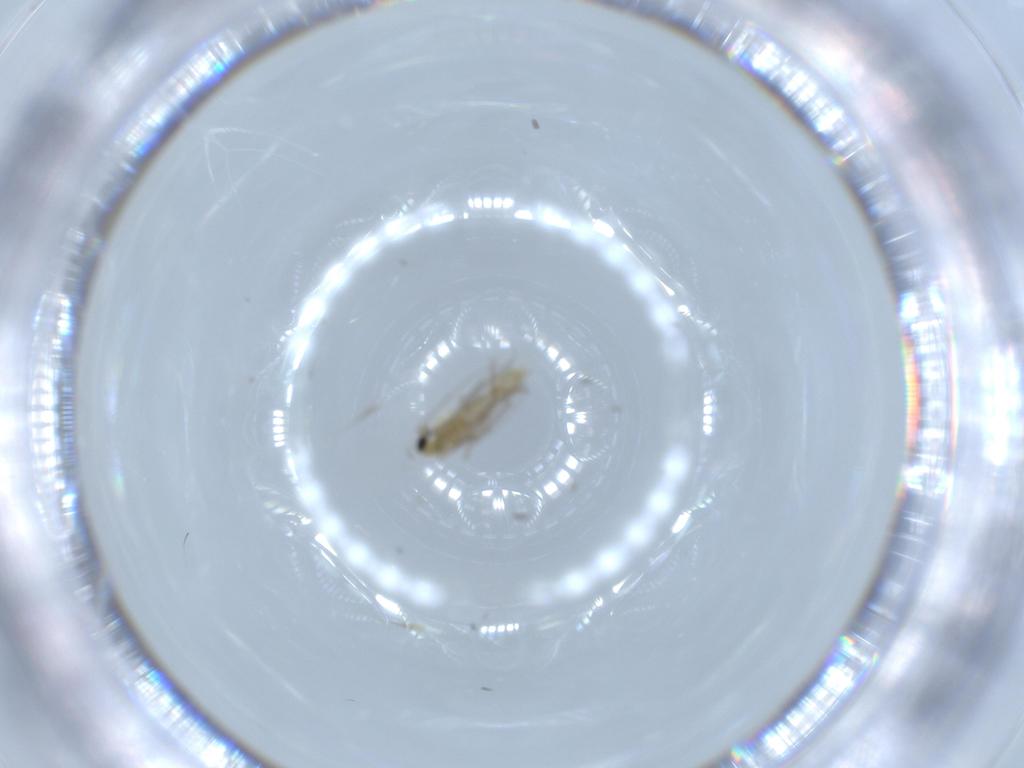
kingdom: Animalia
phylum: Arthropoda
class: Insecta
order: Diptera
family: Chironomidae
